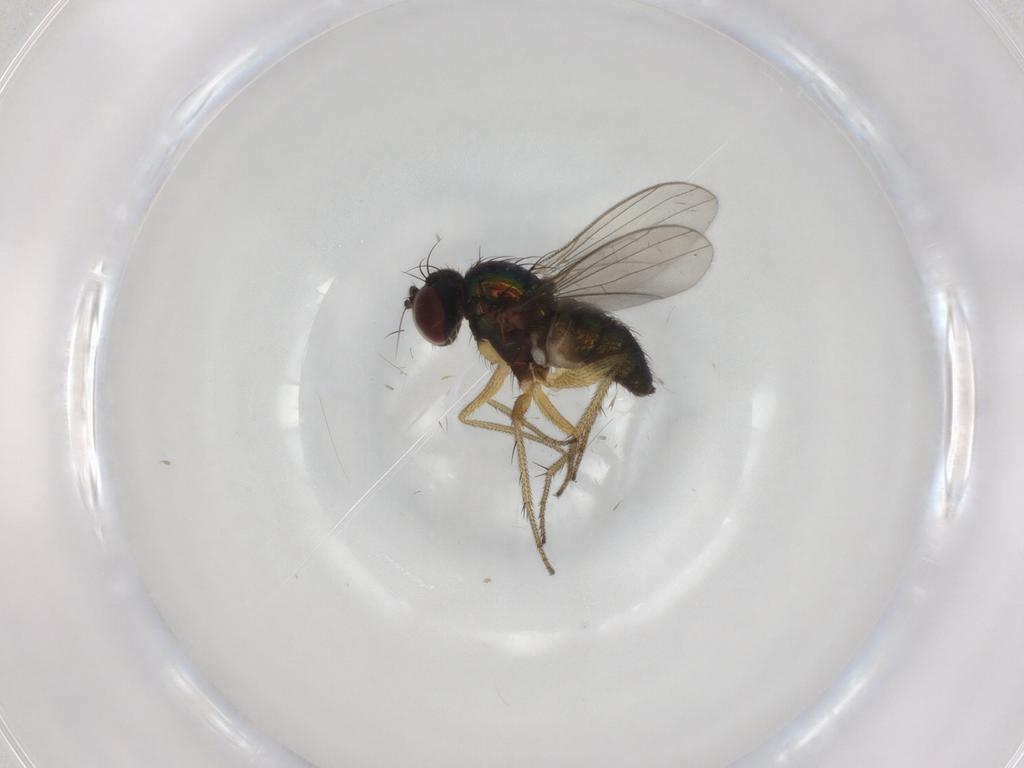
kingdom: Animalia
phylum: Arthropoda
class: Insecta
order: Diptera
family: Dolichopodidae
